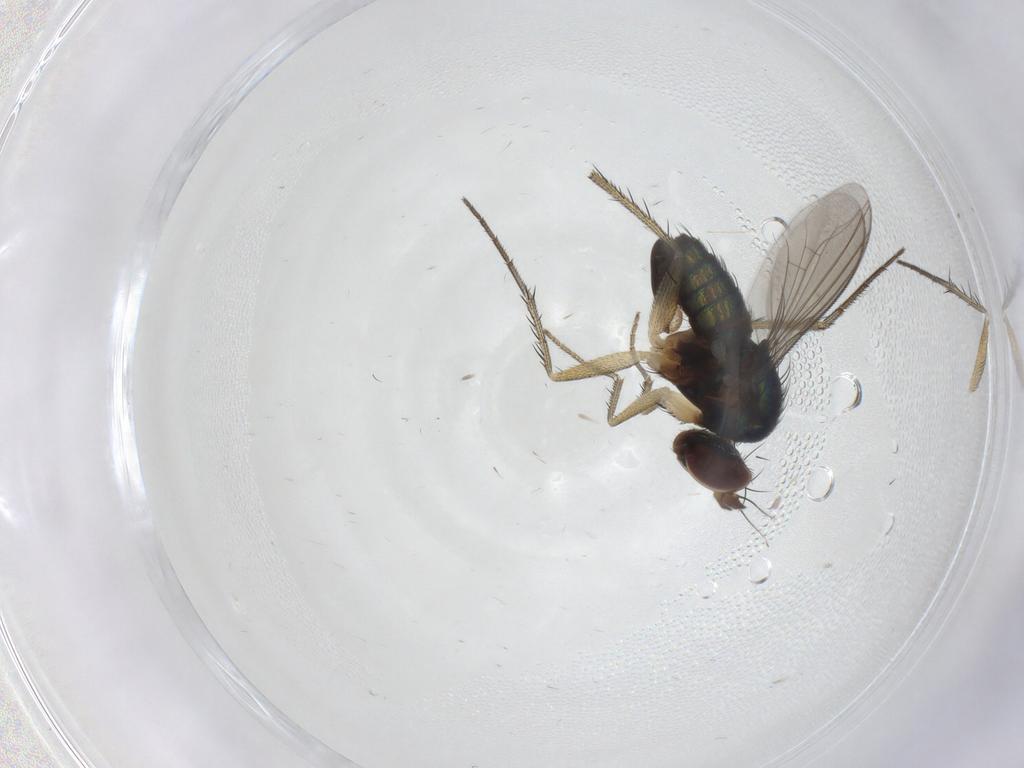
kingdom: Animalia
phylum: Arthropoda
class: Insecta
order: Diptera
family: Dolichopodidae
